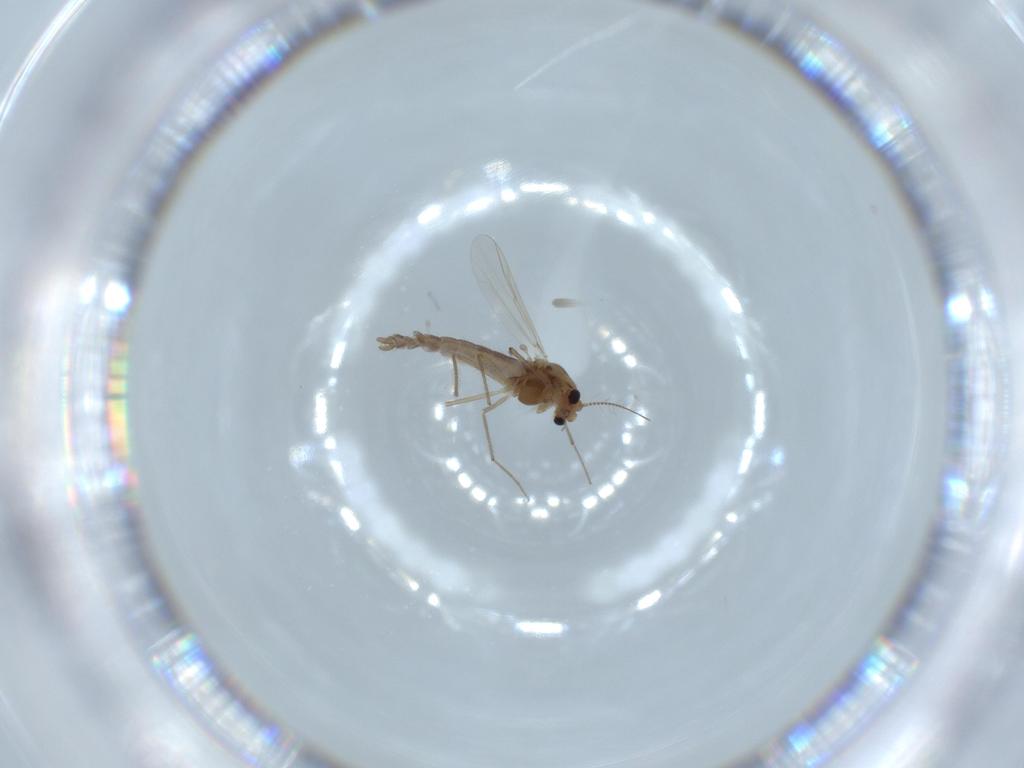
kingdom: Animalia
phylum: Arthropoda
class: Insecta
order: Diptera
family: Chironomidae
